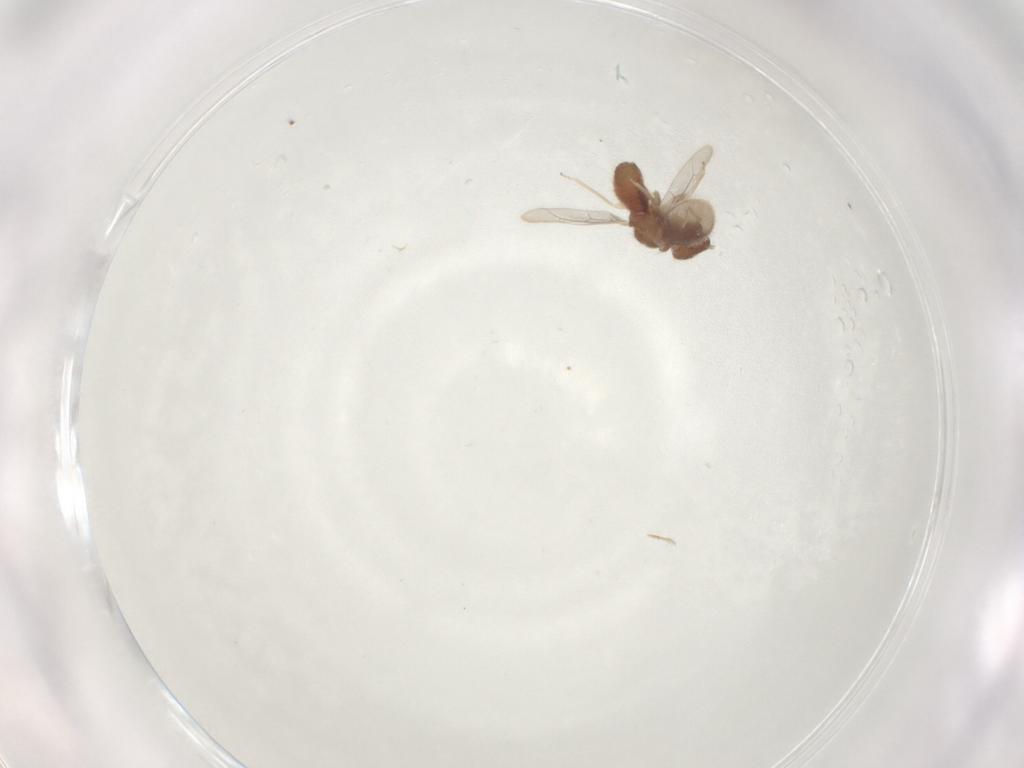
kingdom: Animalia
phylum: Arthropoda
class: Insecta
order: Psocodea
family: Archipsocidae
